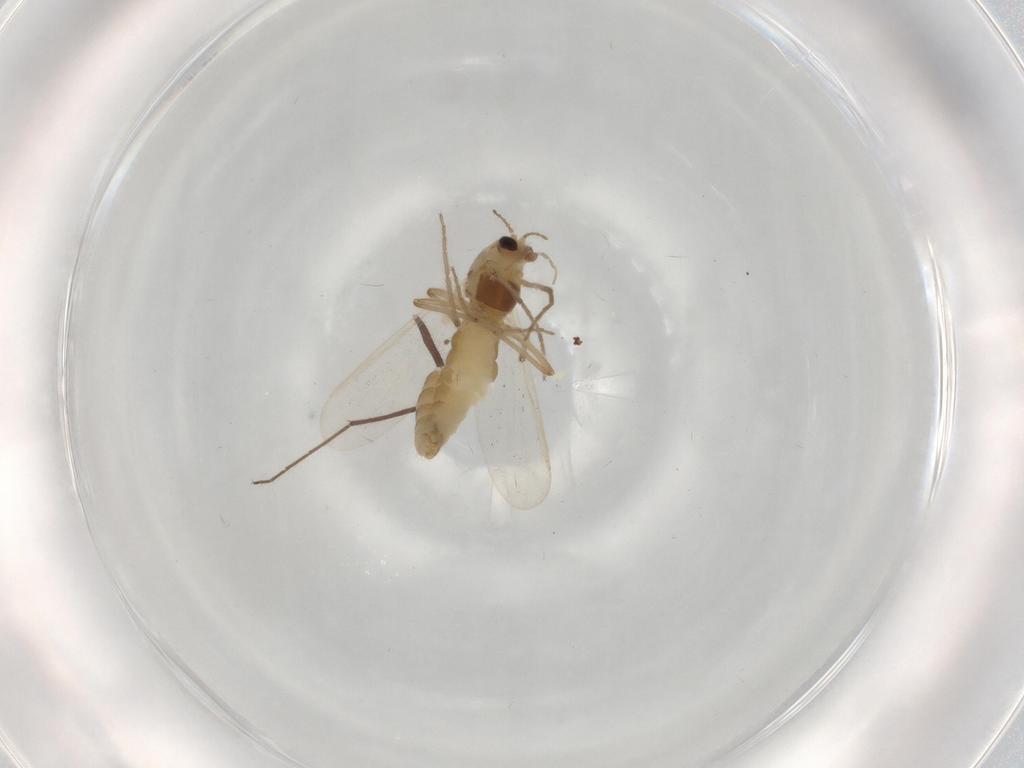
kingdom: Animalia
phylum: Arthropoda
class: Insecta
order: Diptera
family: Chironomidae
